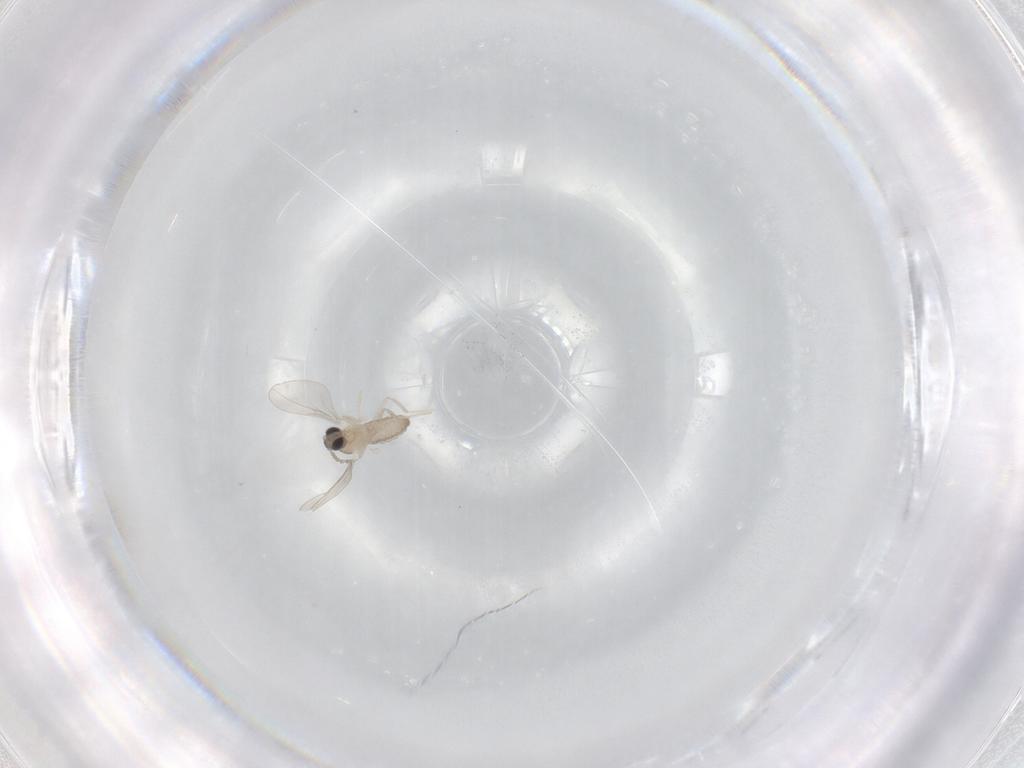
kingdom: Animalia
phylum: Arthropoda
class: Insecta
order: Diptera
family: Cecidomyiidae
